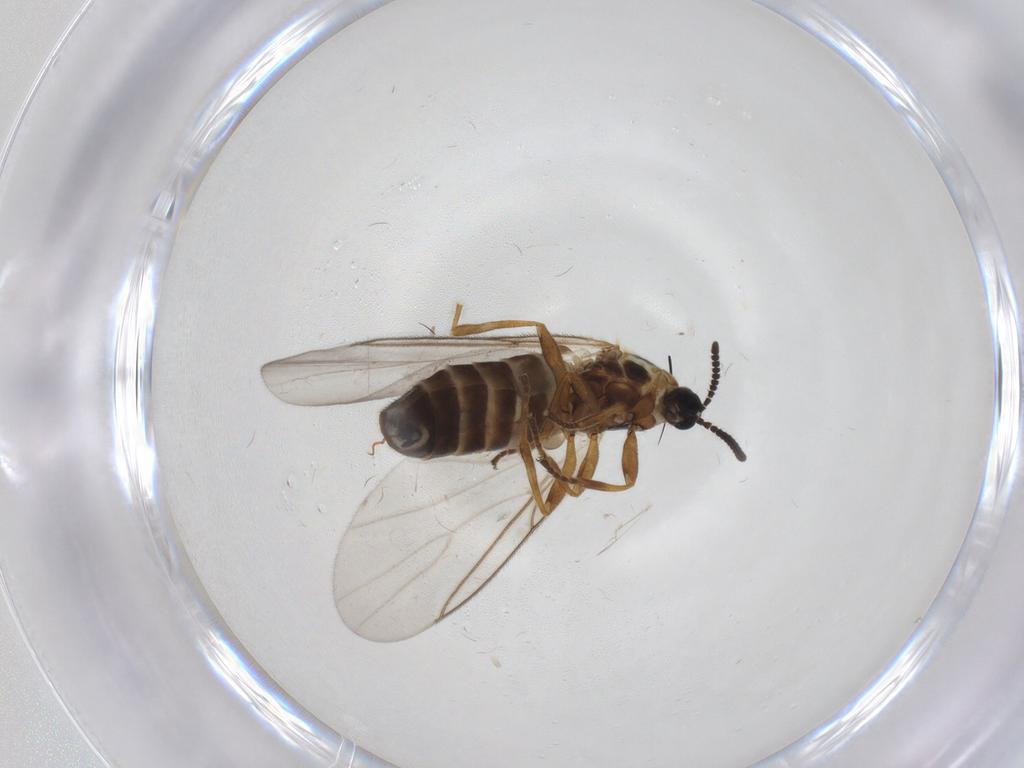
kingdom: Animalia
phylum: Arthropoda
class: Insecta
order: Diptera
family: Scatopsidae
